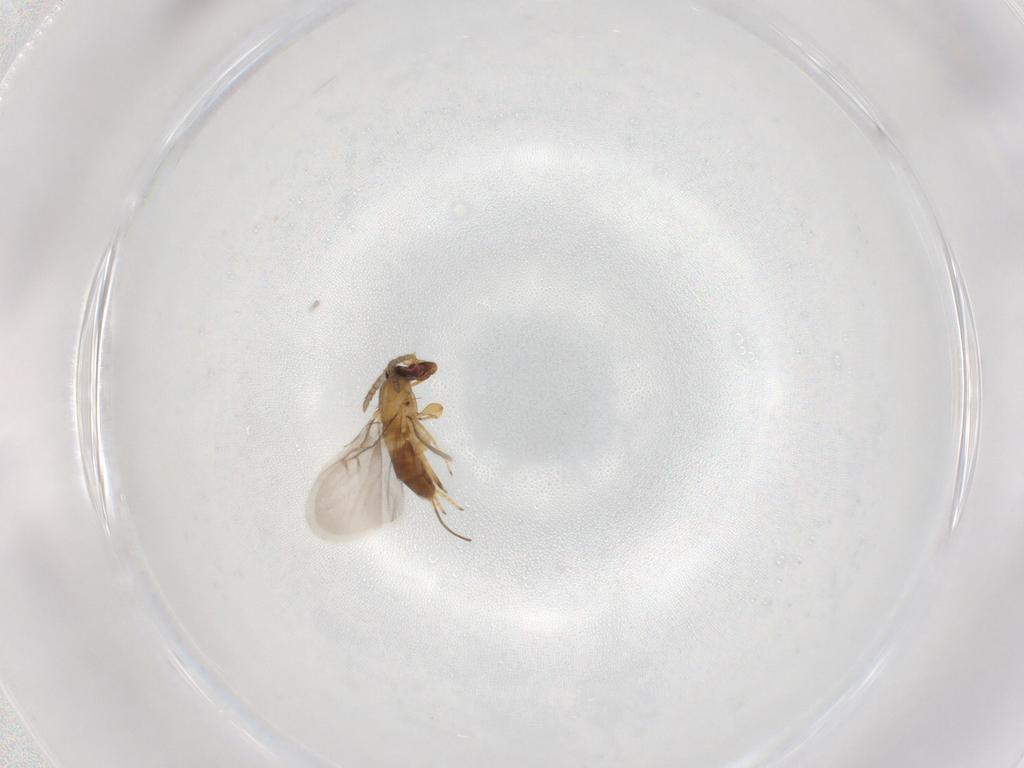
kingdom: Animalia
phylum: Arthropoda
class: Insecta
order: Hymenoptera
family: Agaonidae
